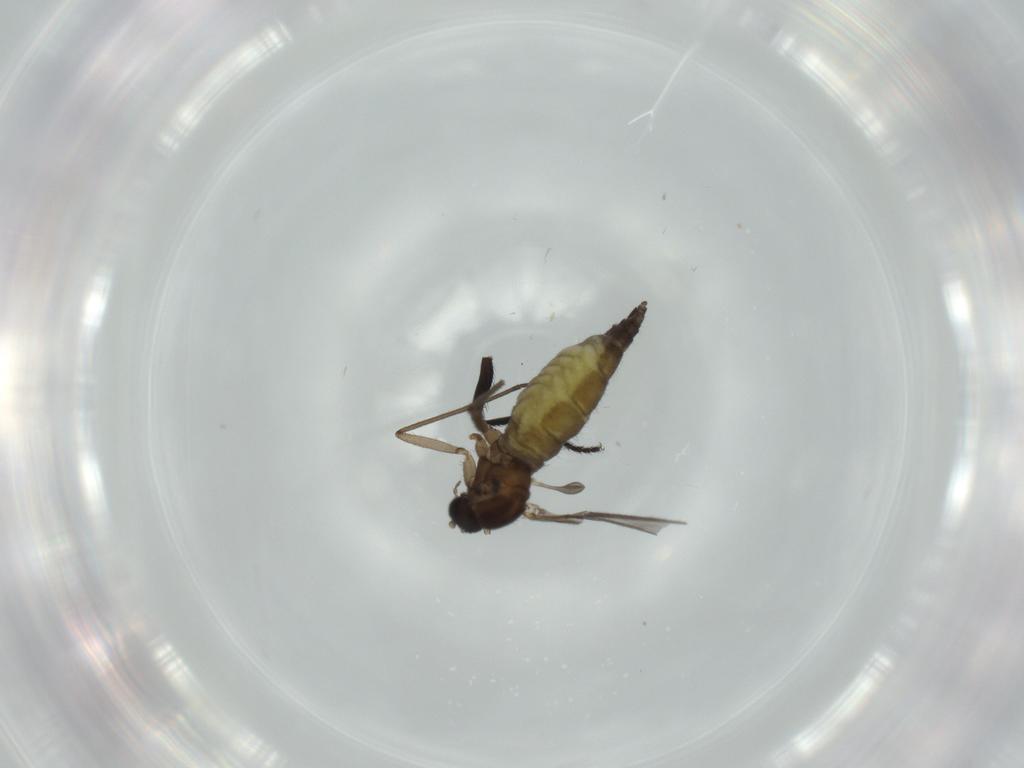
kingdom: Animalia
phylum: Arthropoda
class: Insecta
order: Diptera
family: Sciaridae
